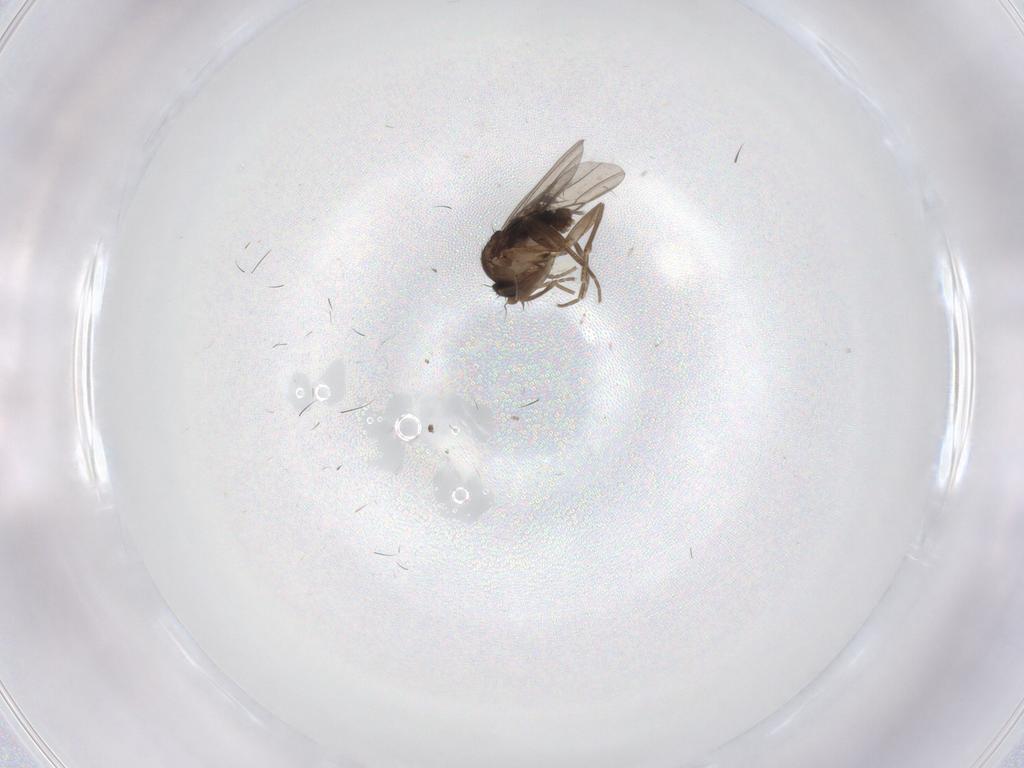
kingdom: Animalia
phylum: Arthropoda
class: Insecta
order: Diptera
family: Phoridae
